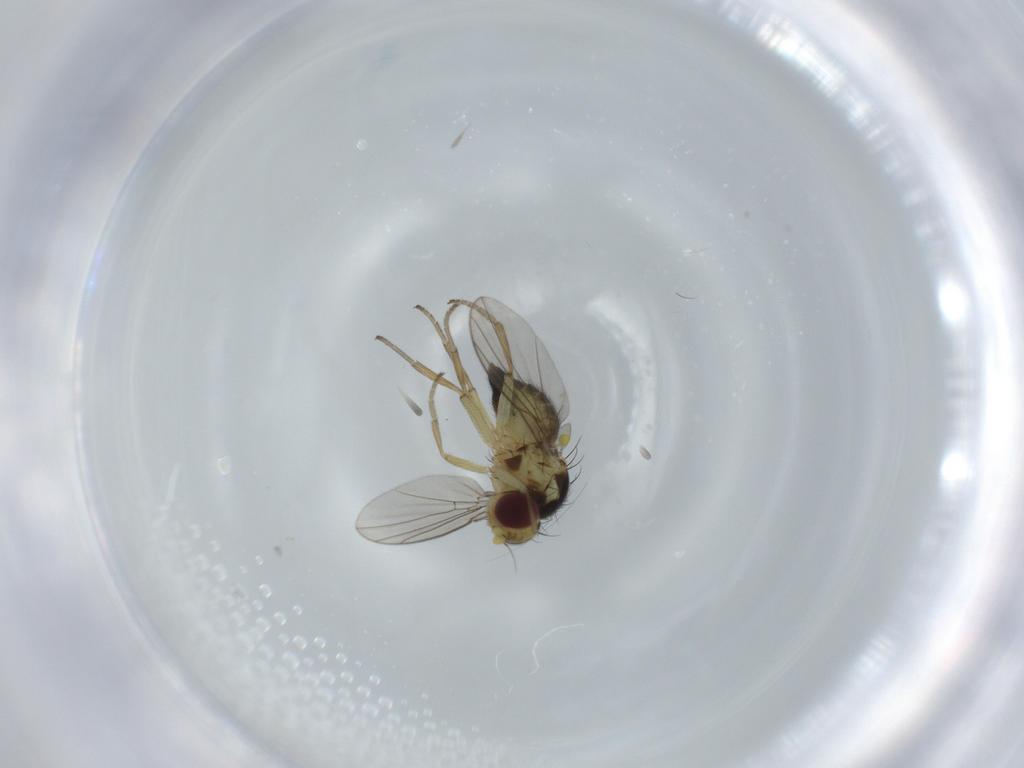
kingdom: Animalia
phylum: Arthropoda
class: Insecta
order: Diptera
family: Agromyzidae
